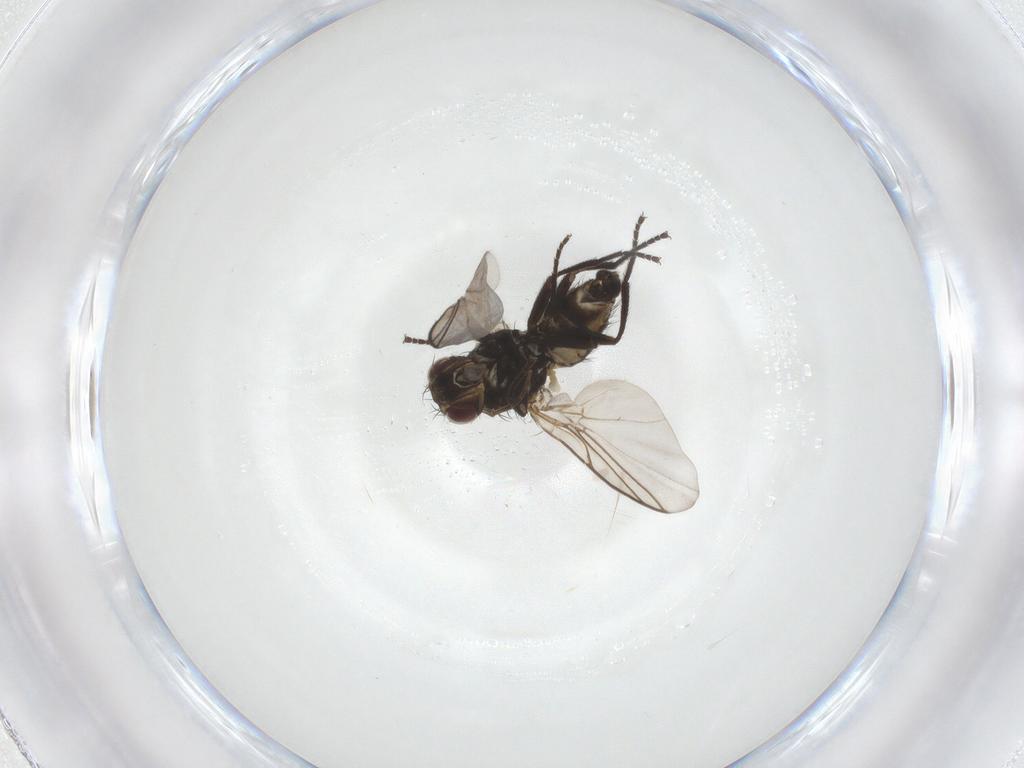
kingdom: Animalia
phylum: Arthropoda
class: Insecta
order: Diptera
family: Agromyzidae
